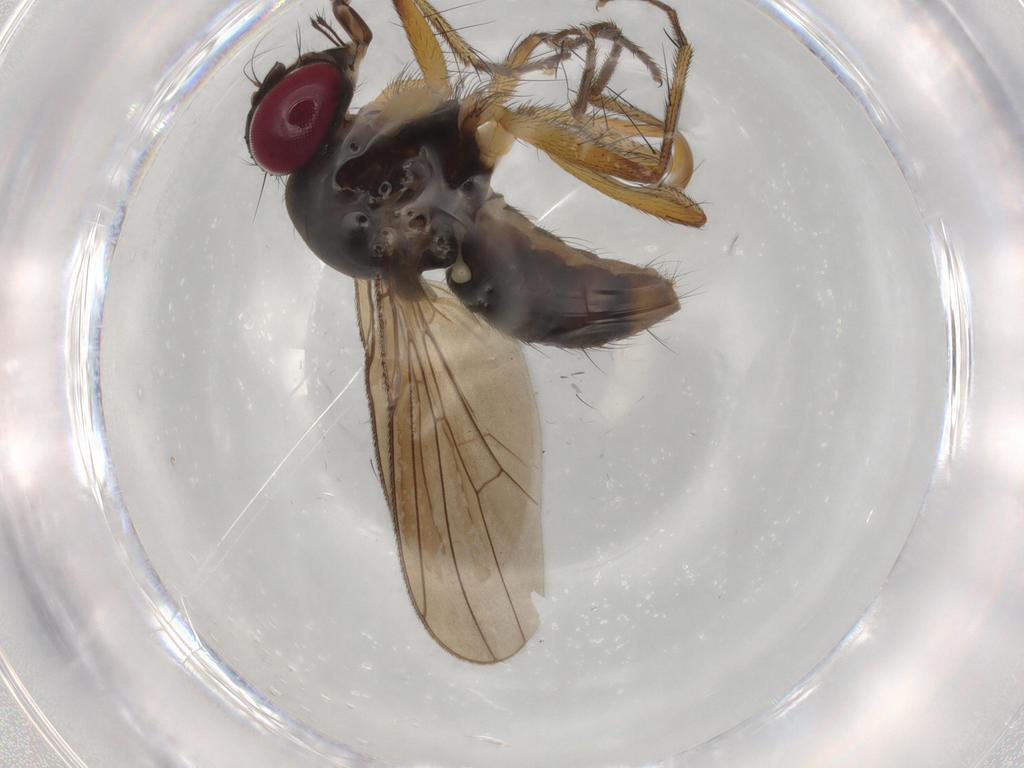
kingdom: Animalia
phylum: Arthropoda
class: Insecta
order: Diptera
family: Anthomyiidae
